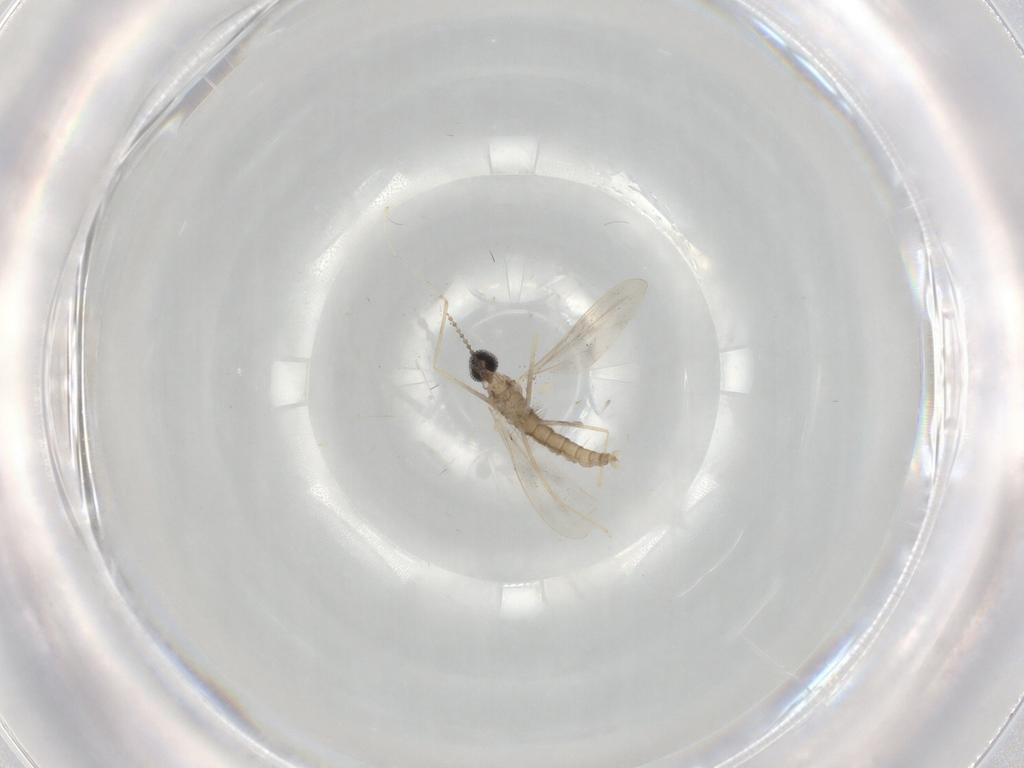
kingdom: Animalia
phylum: Arthropoda
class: Insecta
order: Diptera
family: Cecidomyiidae
